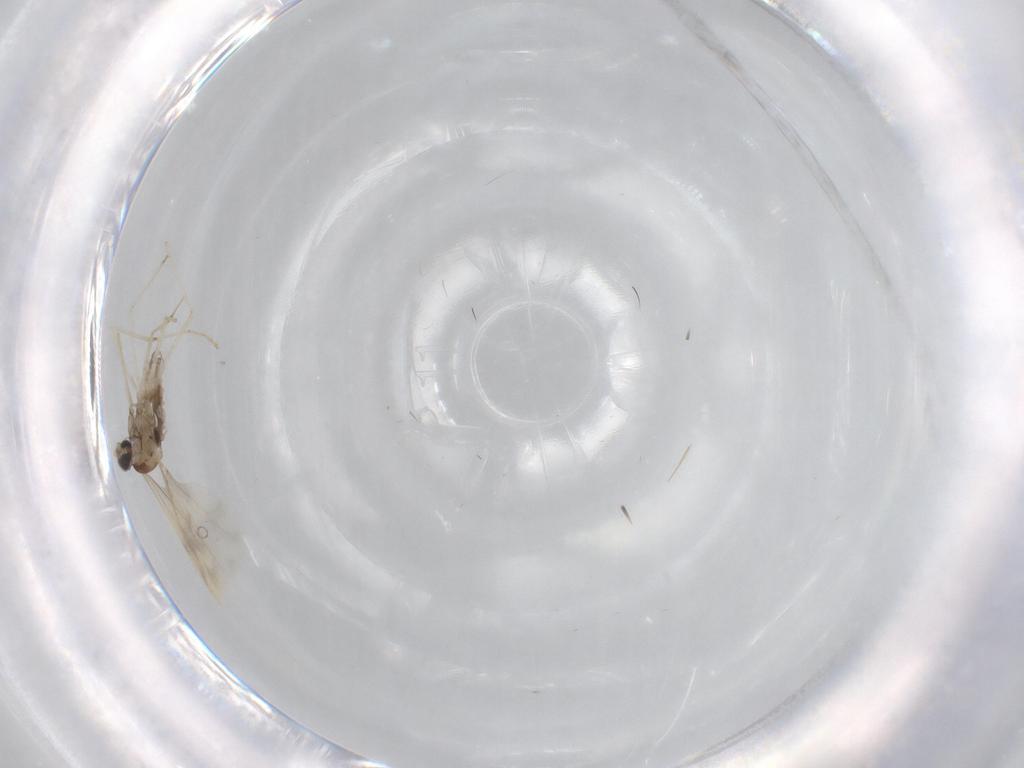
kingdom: Animalia
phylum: Arthropoda
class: Insecta
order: Diptera
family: Cecidomyiidae
